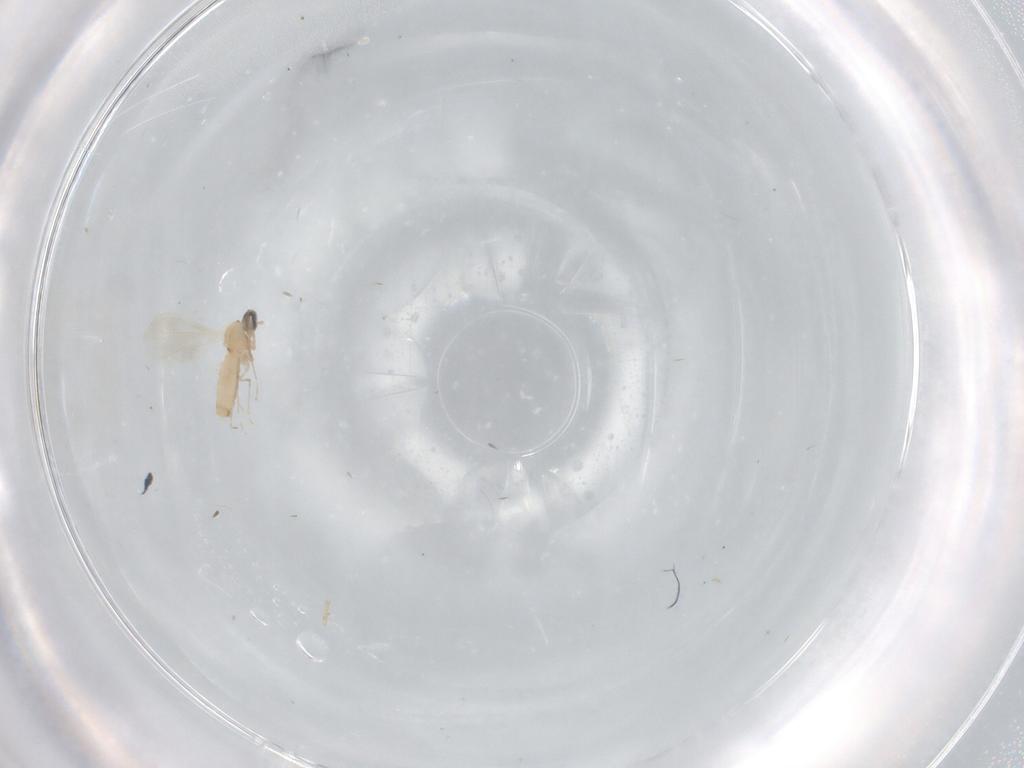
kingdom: Animalia
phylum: Arthropoda
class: Insecta
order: Diptera
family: Cecidomyiidae
